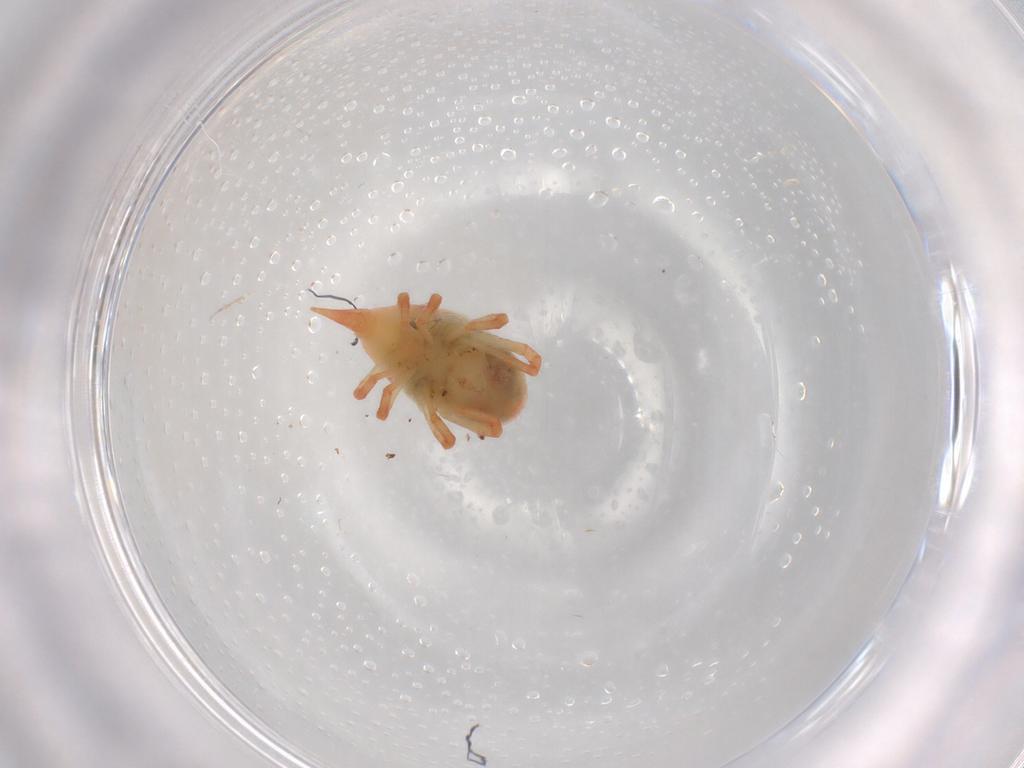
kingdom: Animalia
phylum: Arthropoda
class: Arachnida
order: Trombidiformes
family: Bdellidae
